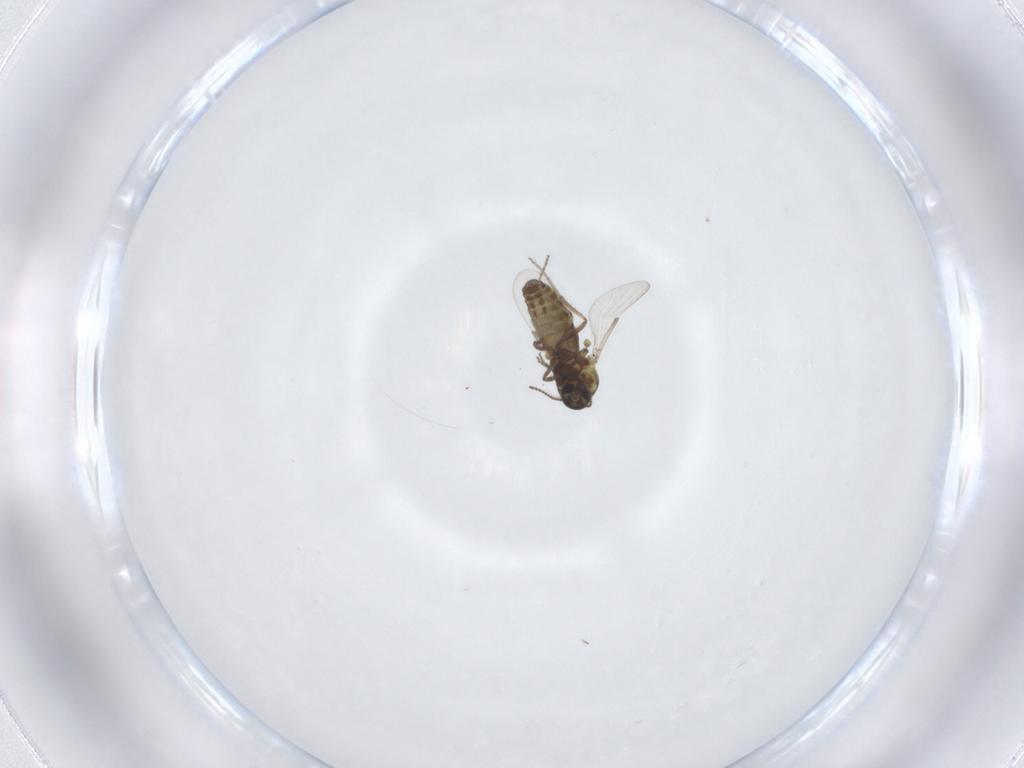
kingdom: Animalia
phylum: Arthropoda
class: Insecta
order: Diptera
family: Ceratopogonidae
